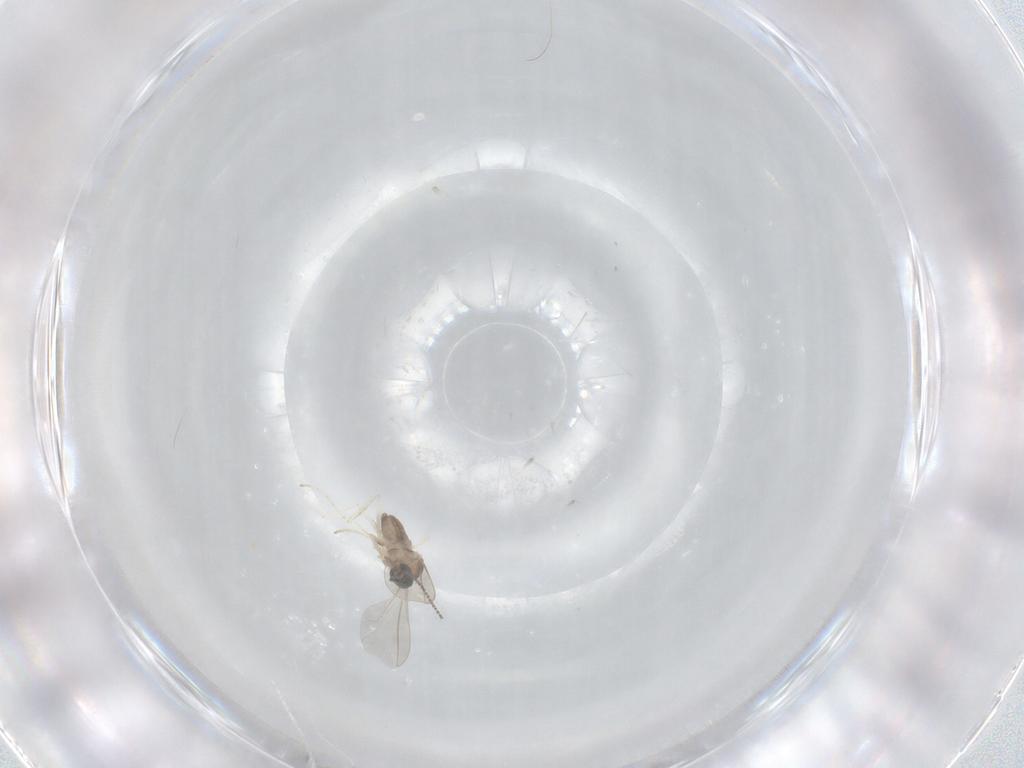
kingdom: Animalia
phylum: Arthropoda
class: Insecta
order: Diptera
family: Cecidomyiidae
